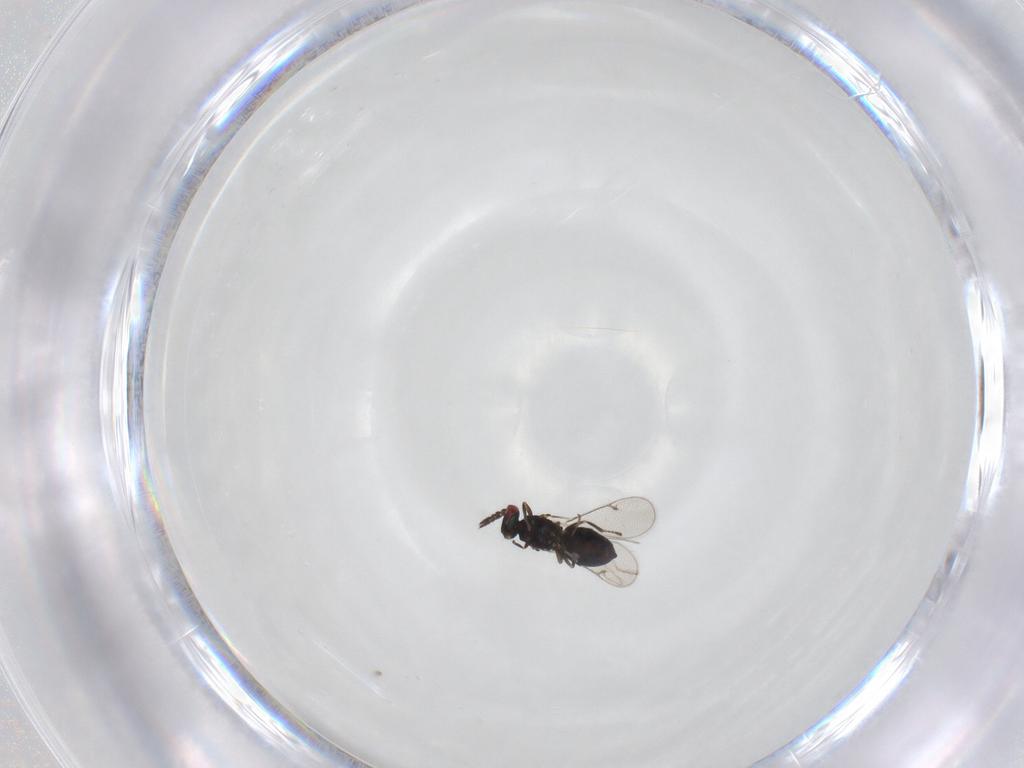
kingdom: Animalia
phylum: Arthropoda
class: Insecta
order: Hymenoptera
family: Eulophidae
